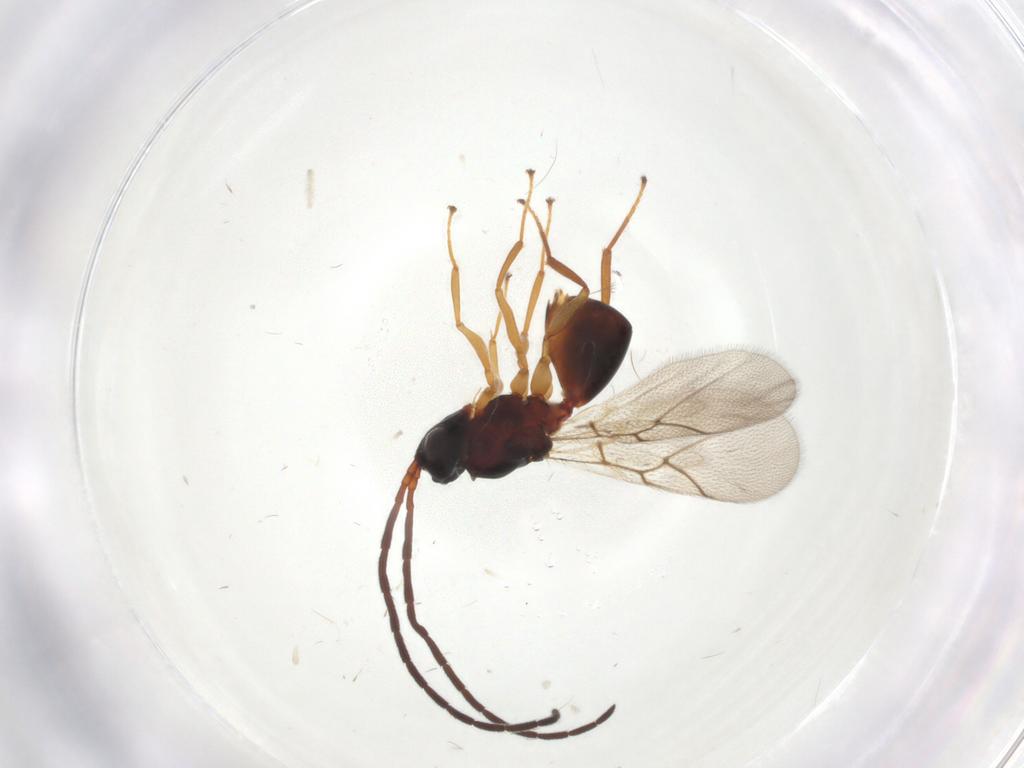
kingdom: Animalia
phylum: Arthropoda
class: Insecta
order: Hymenoptera
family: Figitidae
